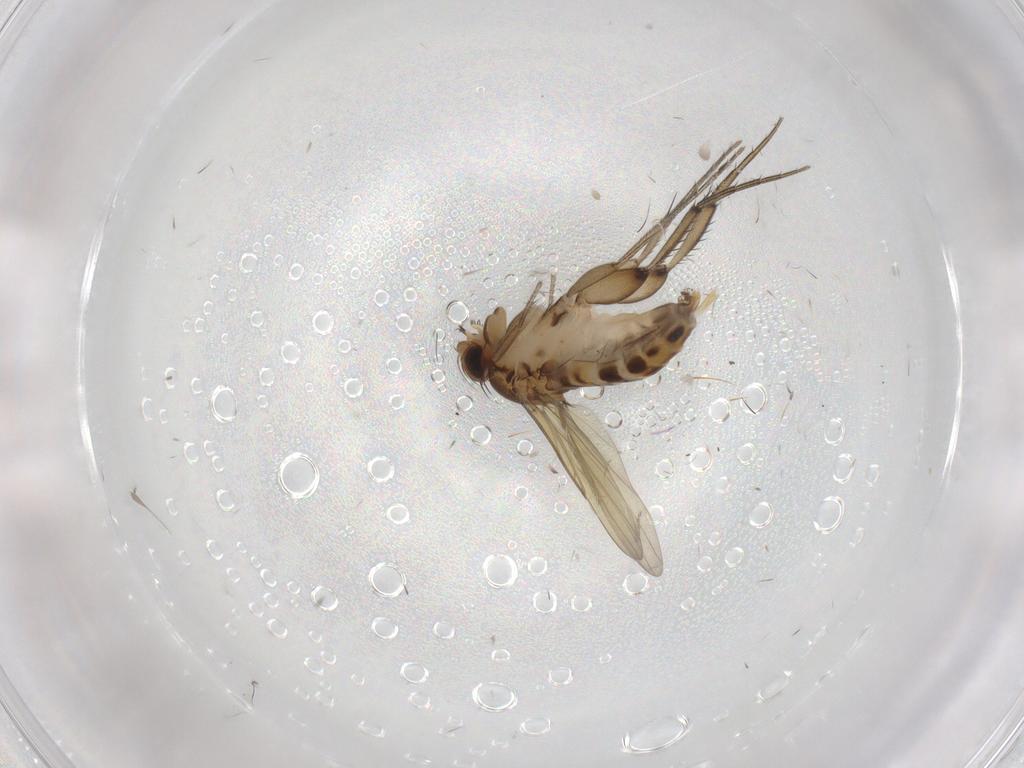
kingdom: Animalia
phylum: Arthropoda
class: Insecta
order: Diptera
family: Phoridae
